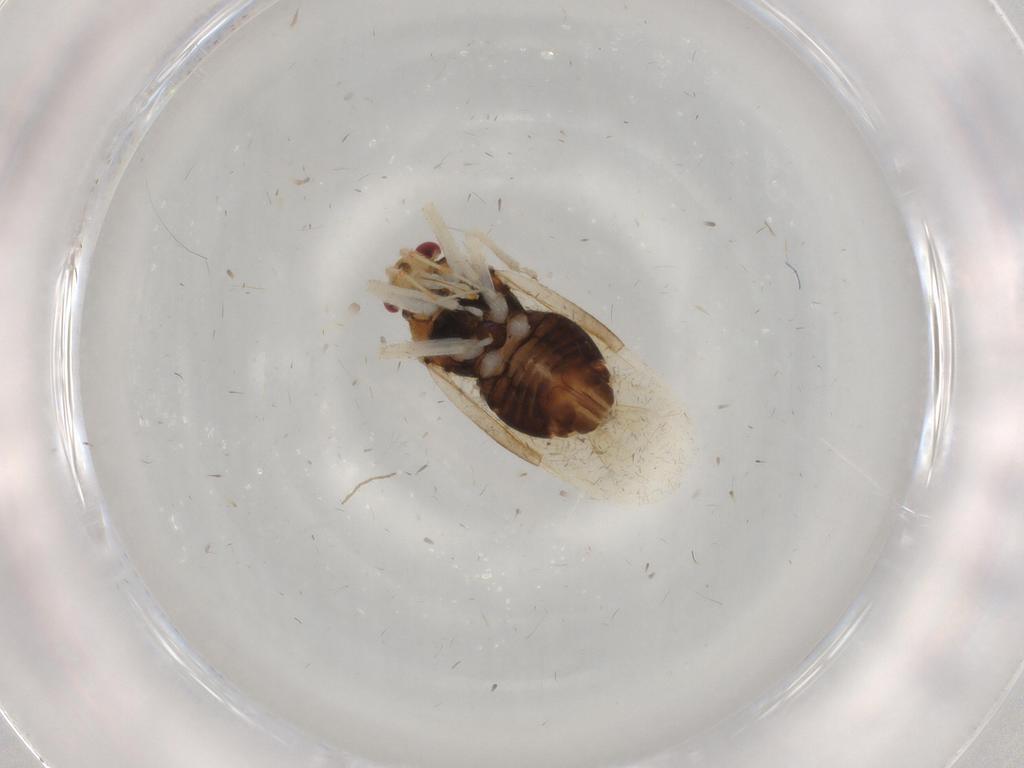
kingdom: Animalia
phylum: Arthropoda
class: Insecta
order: Hemiptera
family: Miridae
